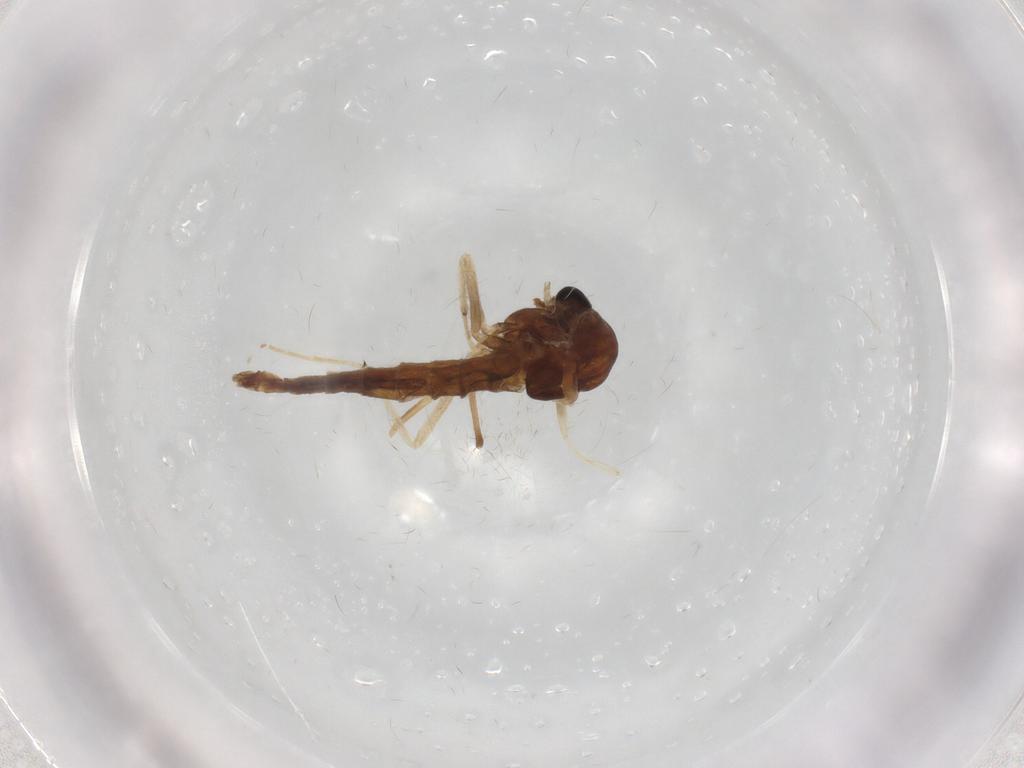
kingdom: Animalia
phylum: Arthropoda
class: Insecta
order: Diptera
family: Chironomidae
